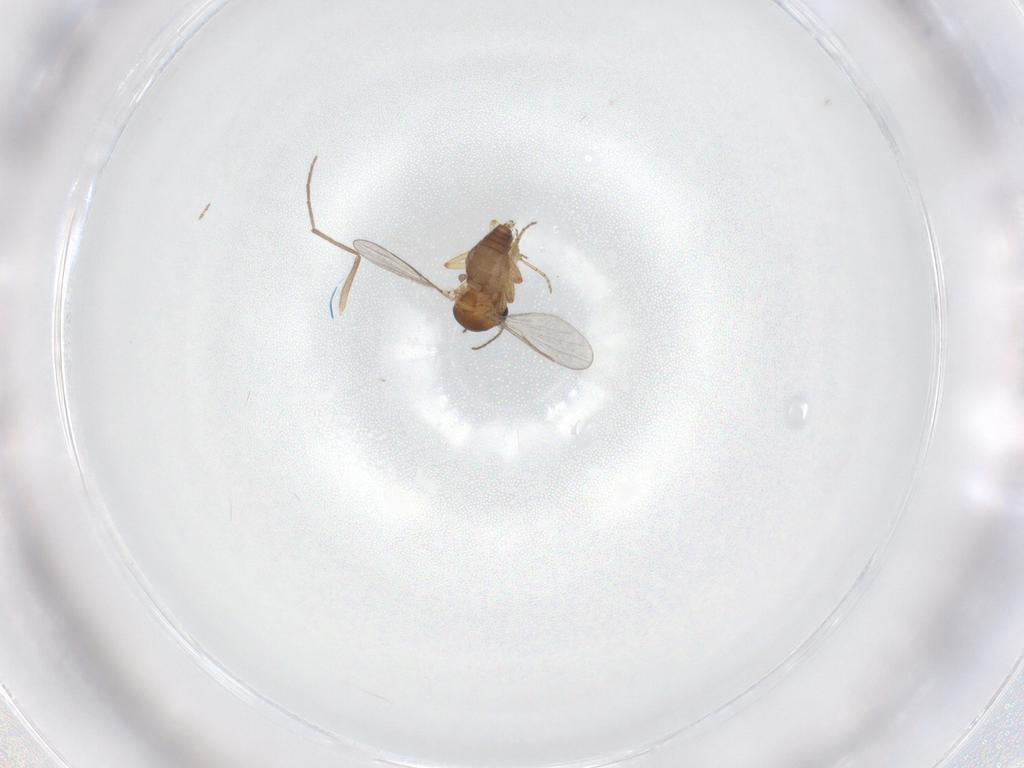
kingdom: Animalia
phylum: Arthropoda
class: Insecta
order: Diptera
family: Chironomidae
